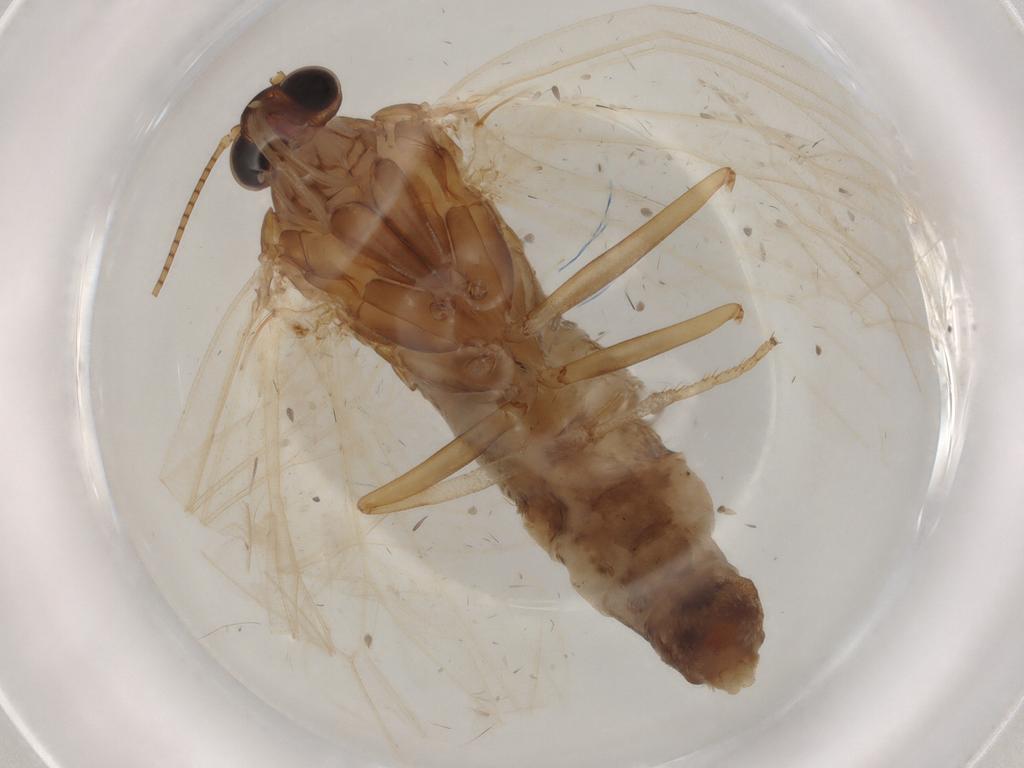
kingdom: Animalia
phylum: Arthropoda
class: Insecta
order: Lepidoptera
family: Geometridae
